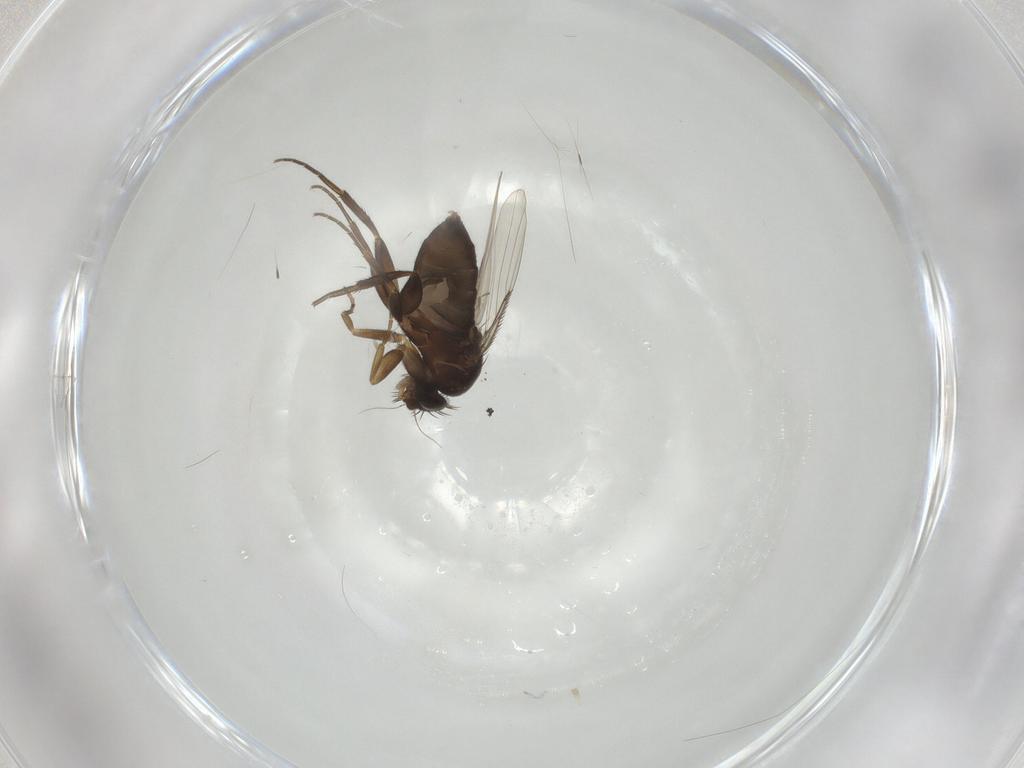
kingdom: Animalia
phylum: Arthropoda
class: Insecta
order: Diptera
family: Phoridae
